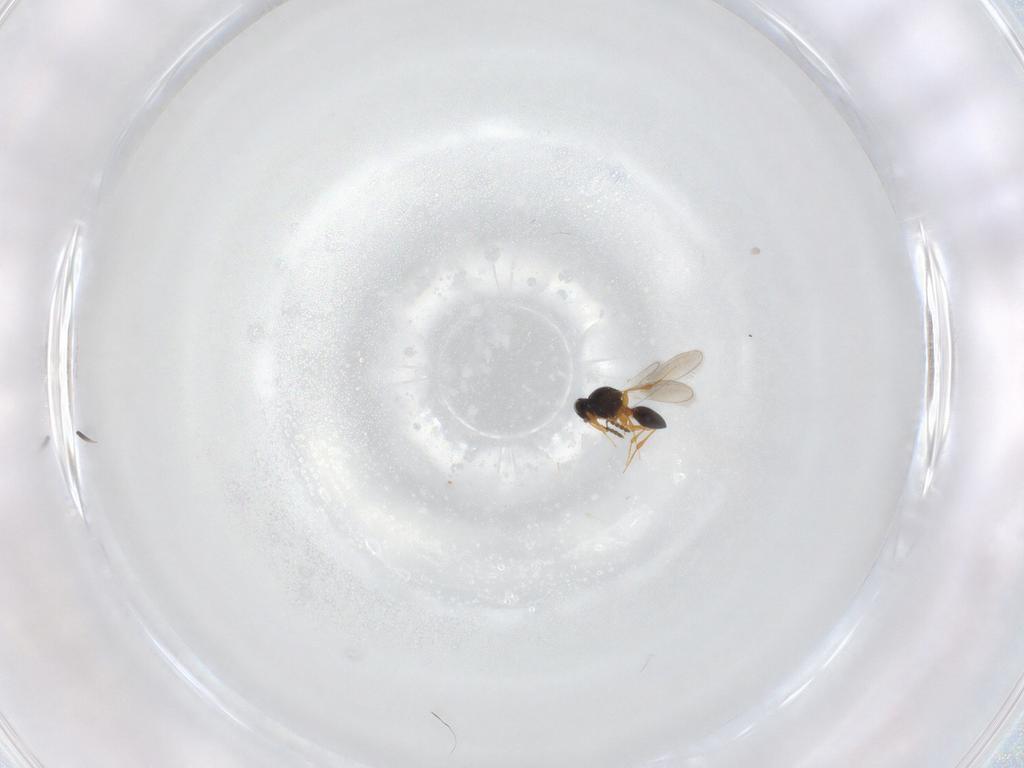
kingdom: Animalia
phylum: Arthropoda
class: Insecta
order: Hymenoptera
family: Platygastridae
